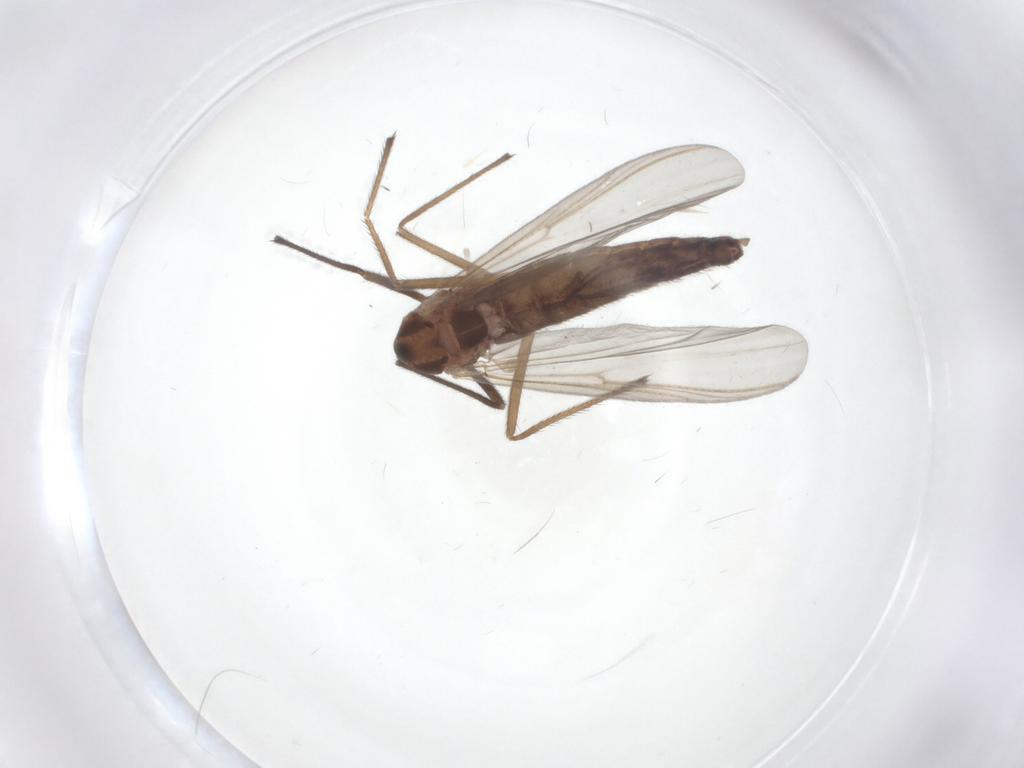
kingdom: Animalia
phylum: Arthropoda
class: Insecta
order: Diptera
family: Chironomidae
